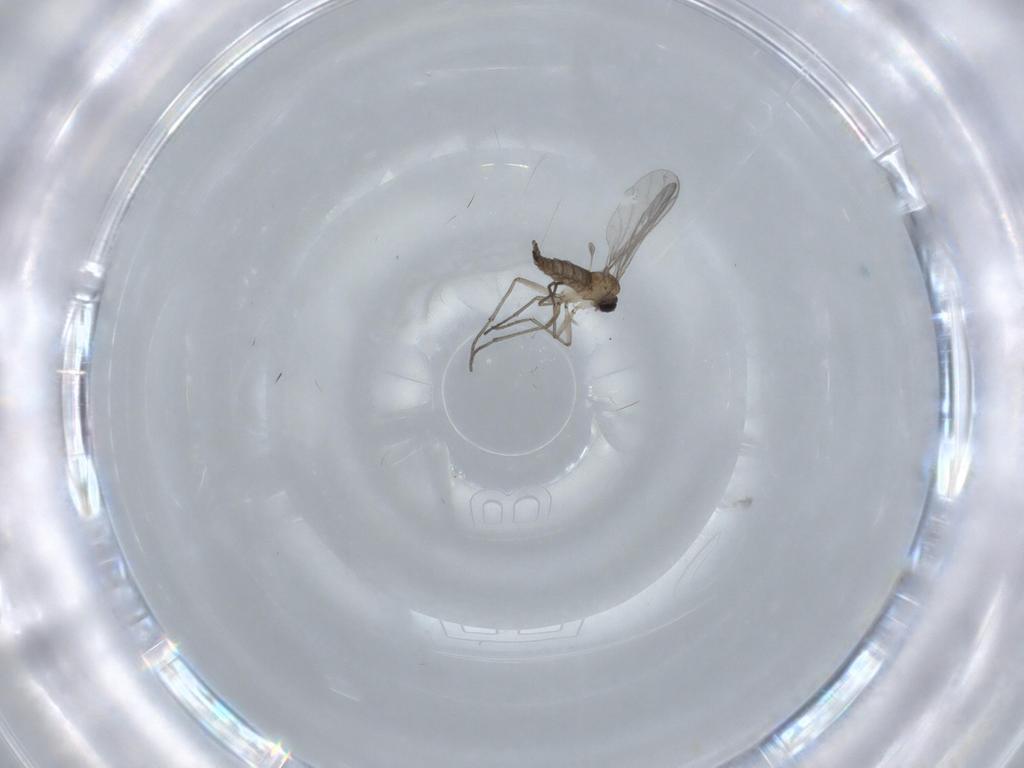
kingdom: Animalia
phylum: Arthropoda
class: Insecta
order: Diptera
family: Sciaridae
